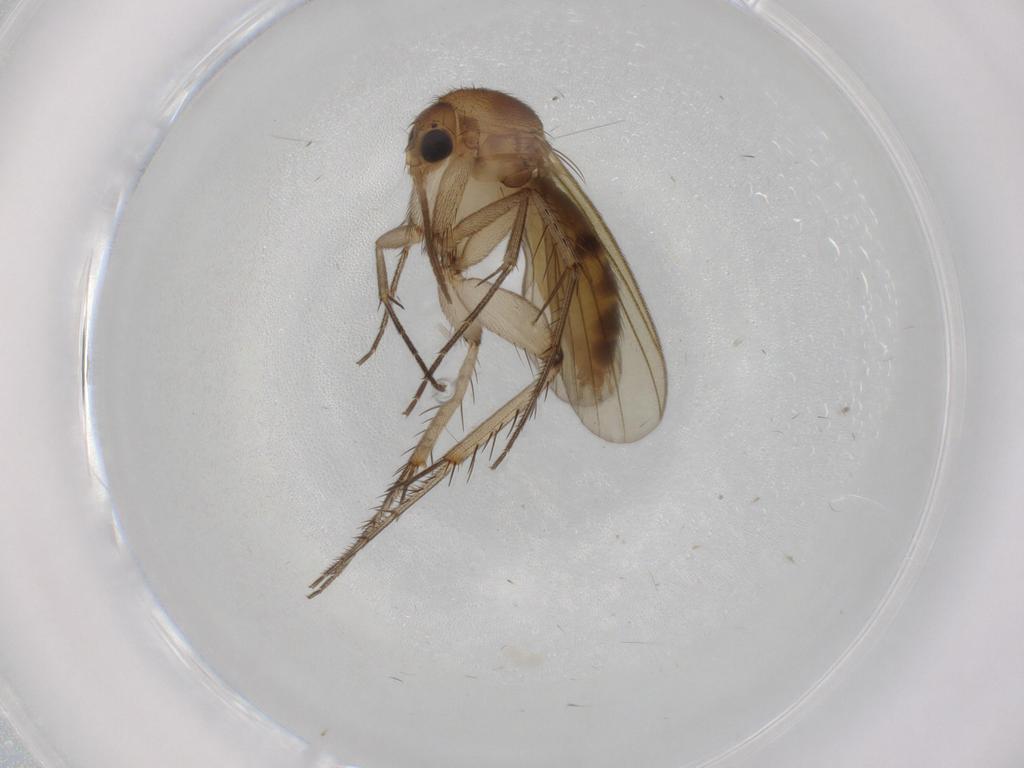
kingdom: Animalia
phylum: Arthropoda
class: Insecta
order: Diptera
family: Mycetophilidae
